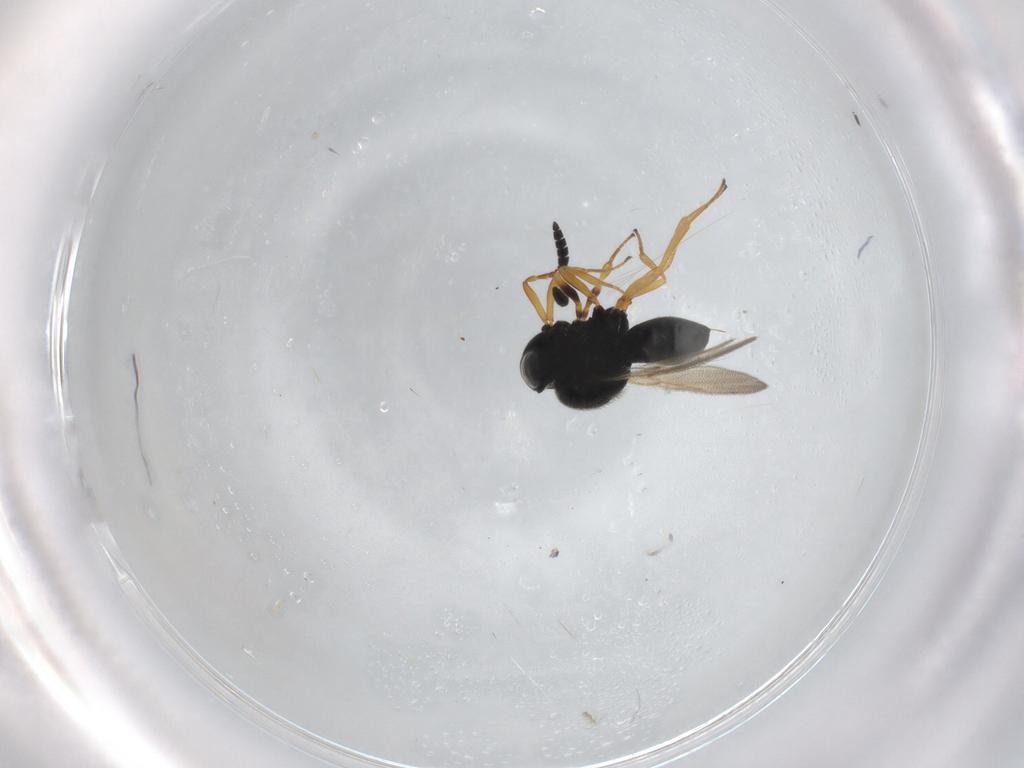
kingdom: Animalia
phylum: Arthropoda
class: Insecta
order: Hymenoptera
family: Scelionidae
